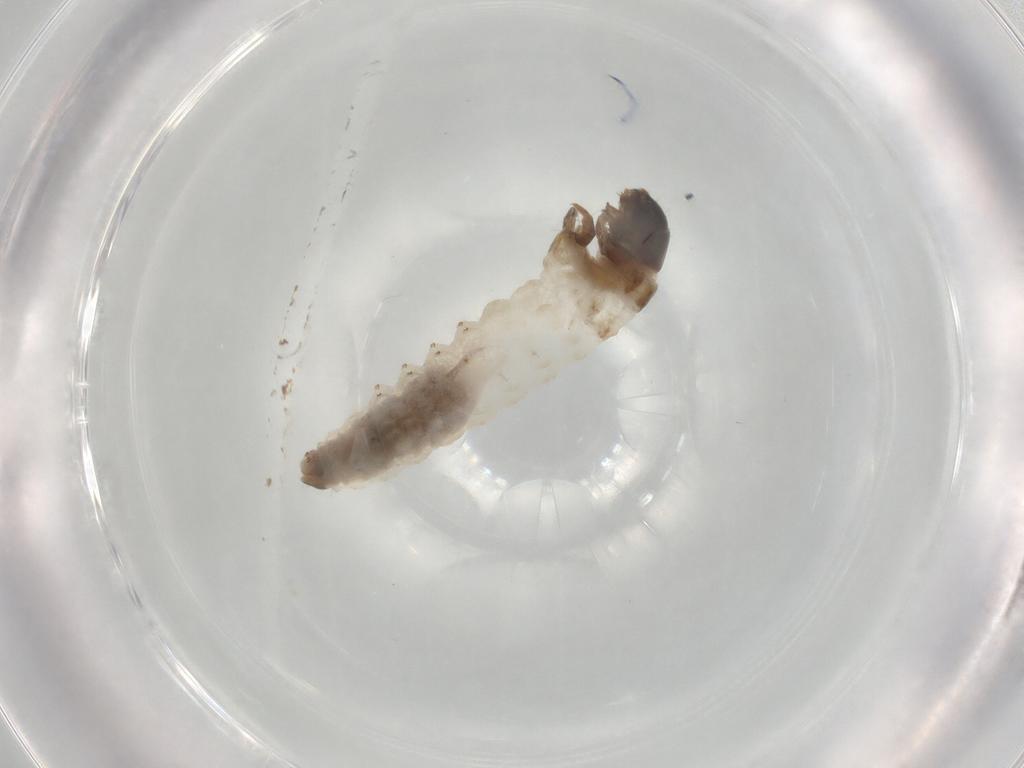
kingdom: Animalia
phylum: Arthropoda
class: Insecta
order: Lepidoptera
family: Psychidae
